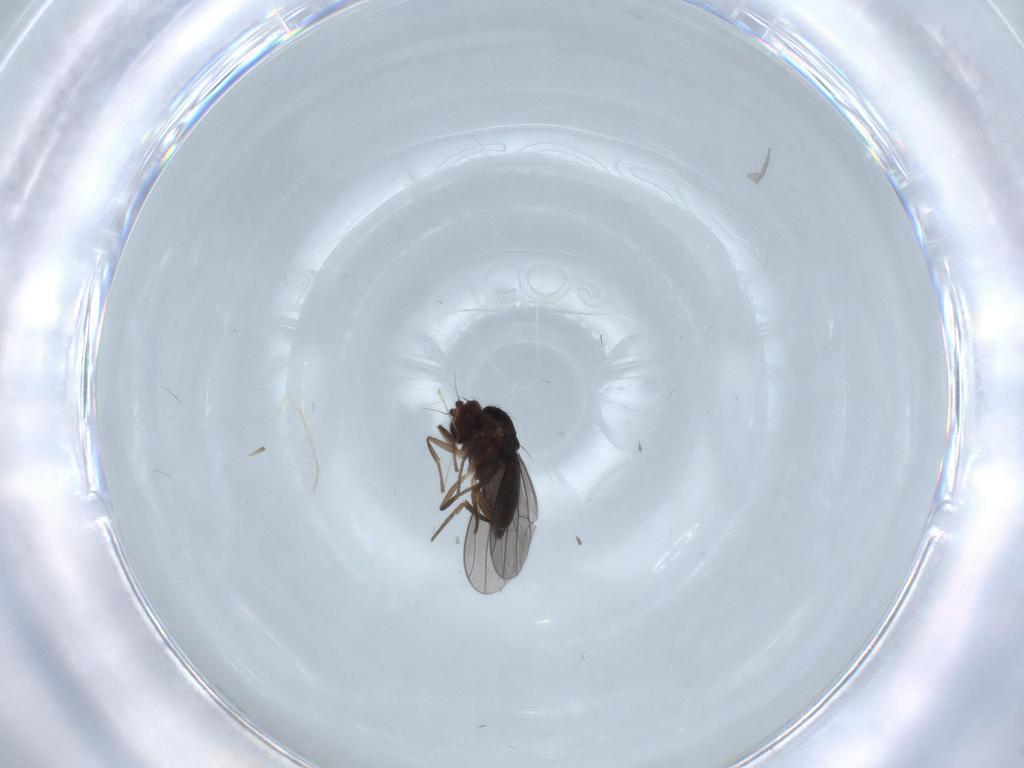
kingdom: Animalia
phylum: Arthropoda
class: Insecta
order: Diptera
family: Dolichopodidae
